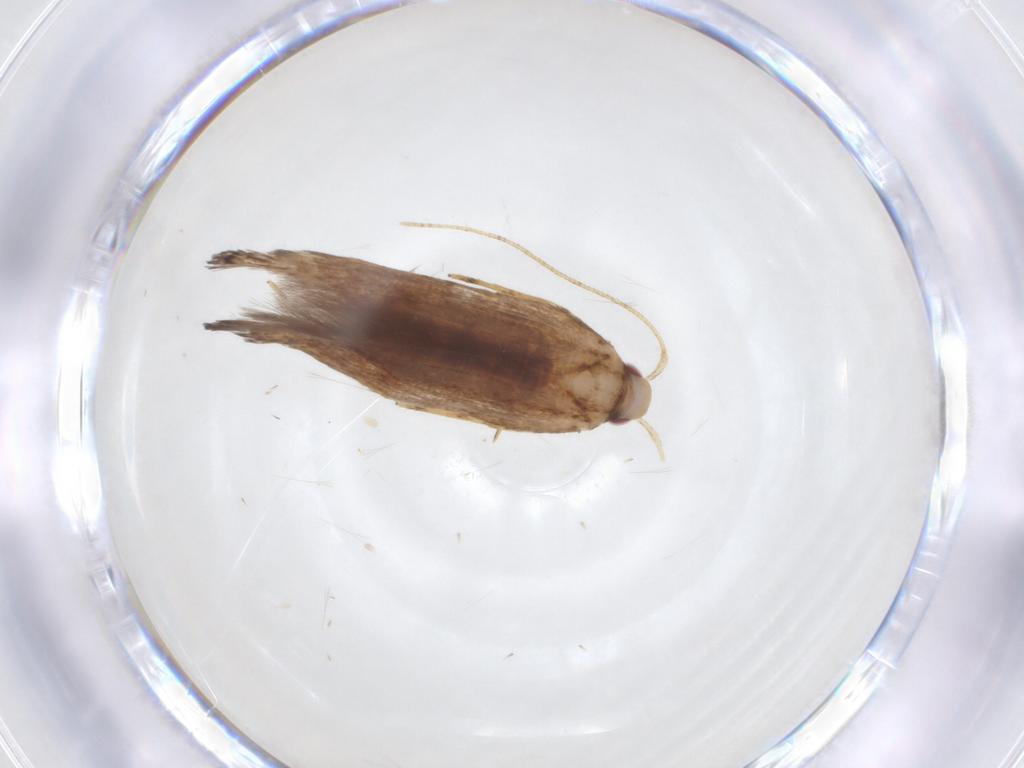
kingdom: Animalia
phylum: Arthropoda
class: Insecta
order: Lepidoptera
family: Cosmopterigidae
